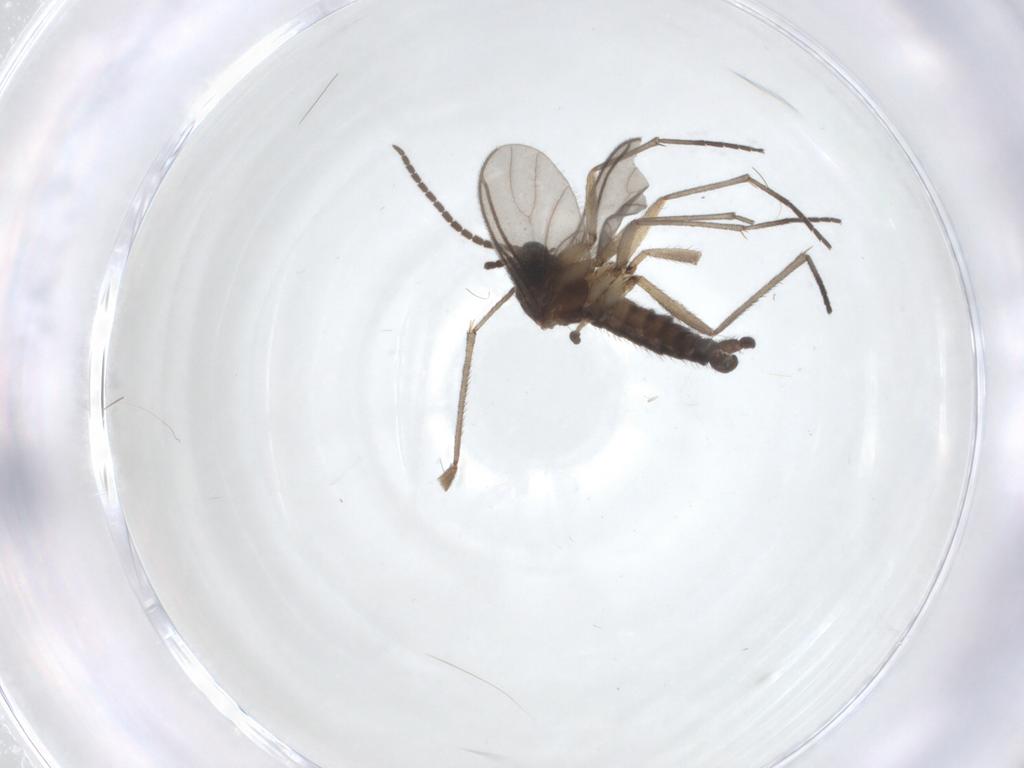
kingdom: Animalia
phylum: Arthropoda
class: Insecta
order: Diptera
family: Sciaridae
